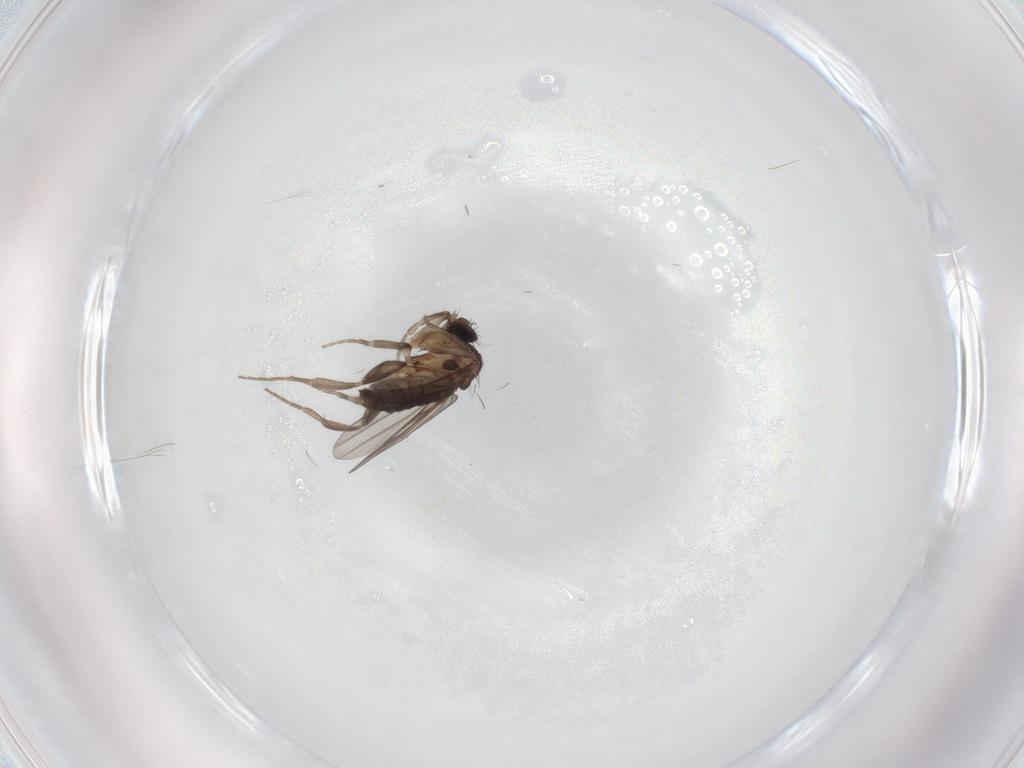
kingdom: Animalia
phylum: Arthropoda
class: Insecta
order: Diptera
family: Phoridae
